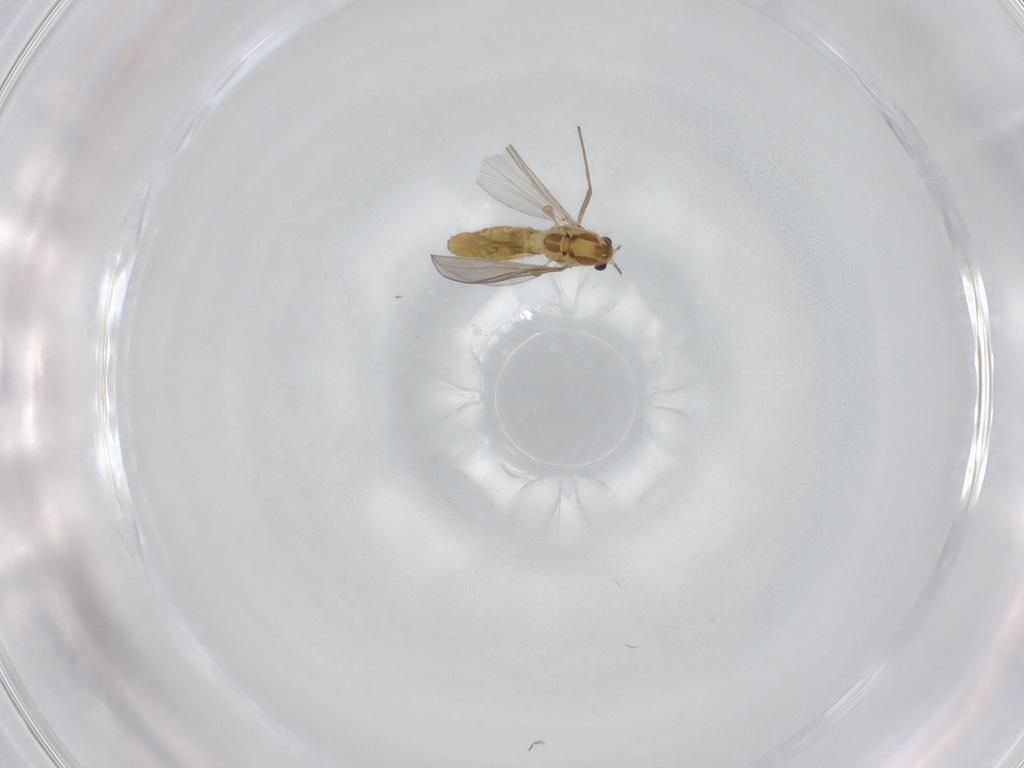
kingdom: Animalia
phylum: Arthropoda
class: Insecta
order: Diptera
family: Chironomidae
